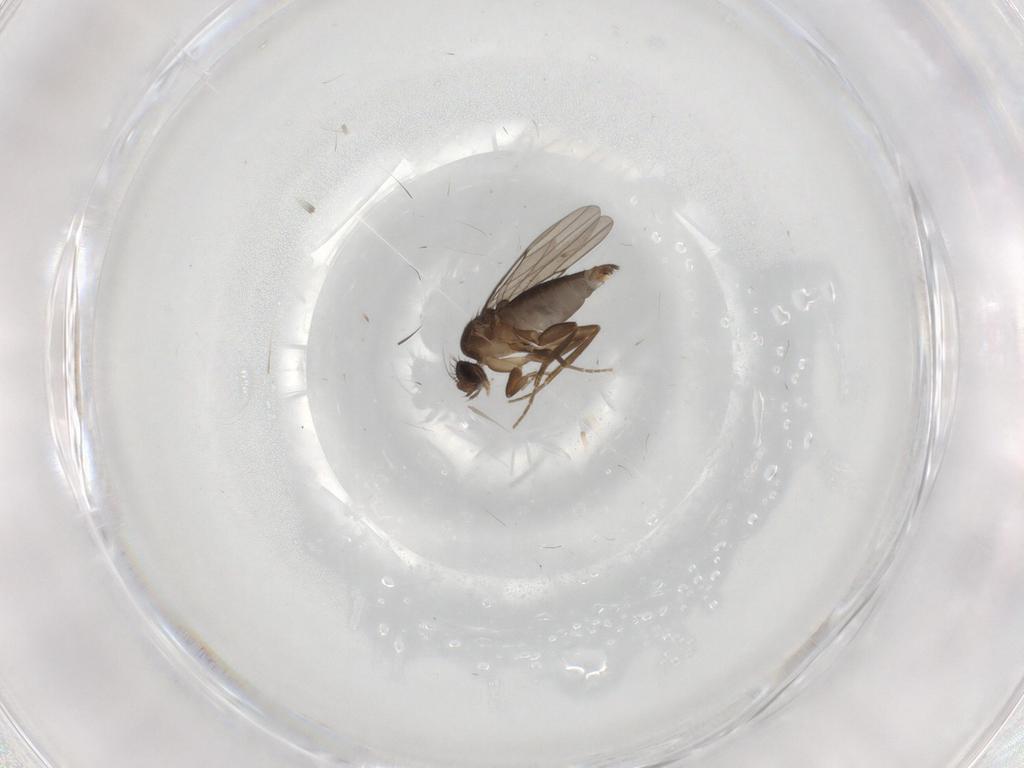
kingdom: Animalia
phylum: Arthropoda
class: Insecta
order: Diptera
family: Phoridae
